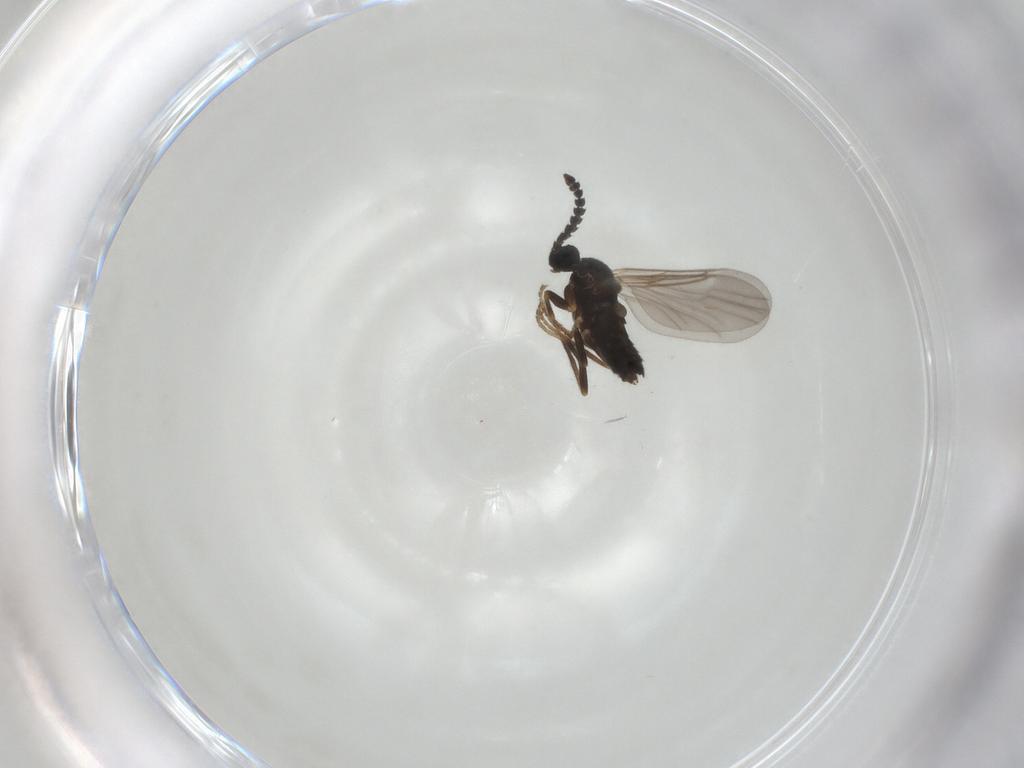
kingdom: Animalia
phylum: Arthropoda
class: Insecta
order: Diptera
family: Scatopsidae
